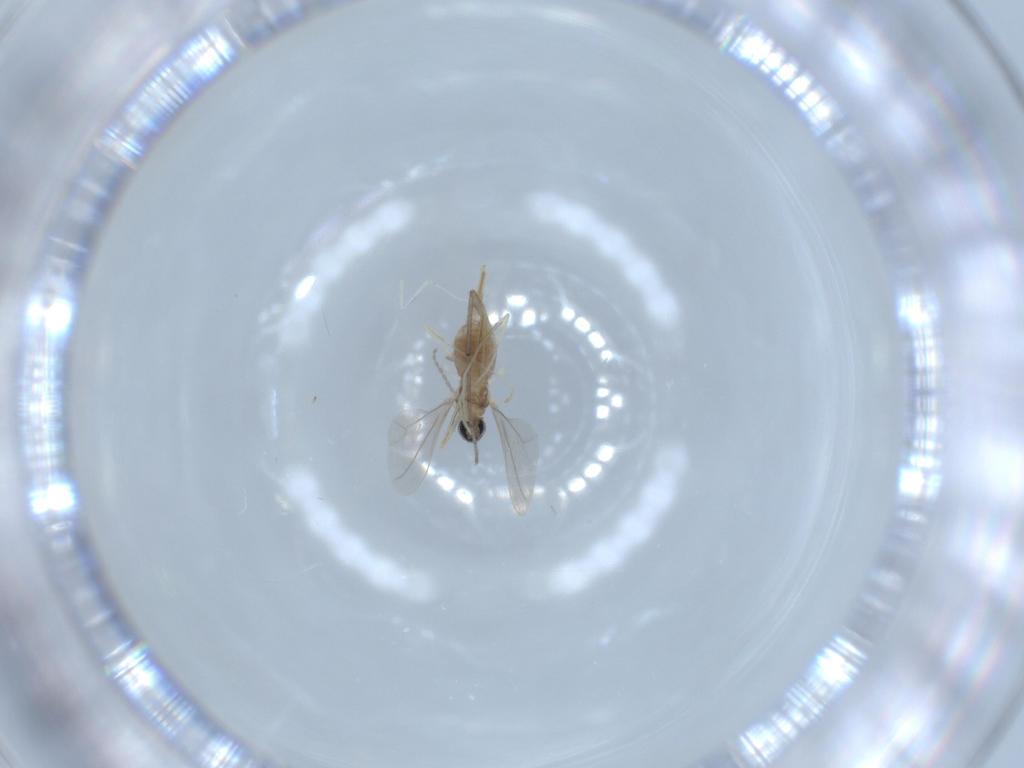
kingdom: Animalia
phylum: Arthropoda
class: Insecta
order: Diptera
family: Chironomidae
